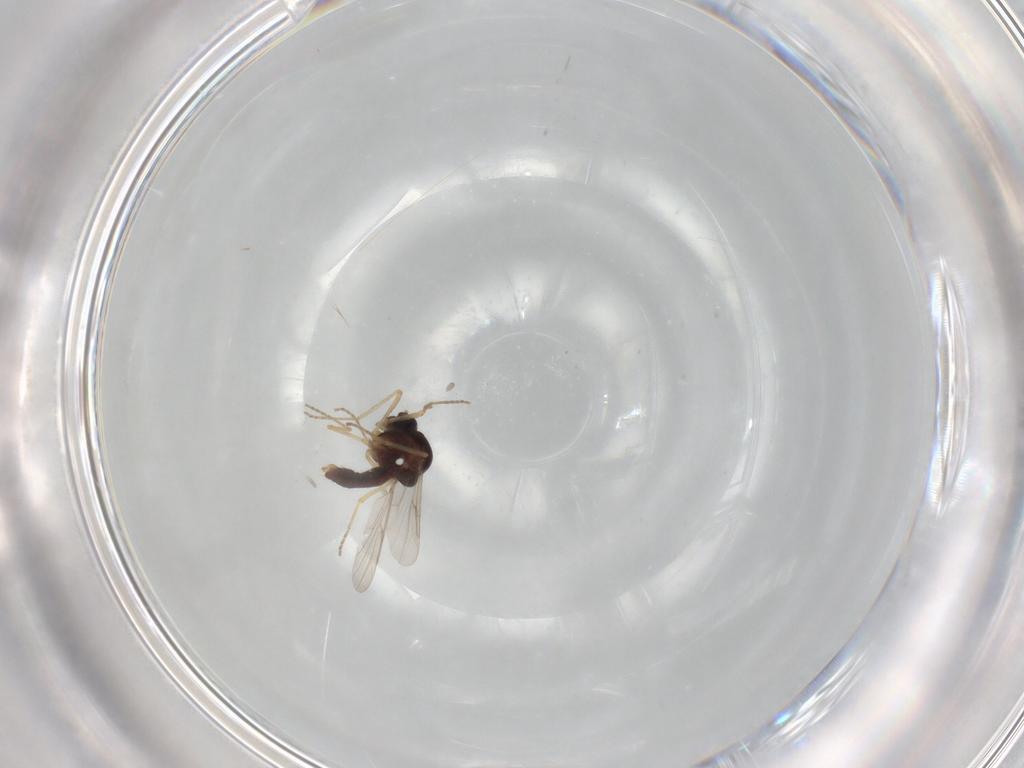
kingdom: Animalia
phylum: Arthropoda
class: Insecta
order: Diptera
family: Ceratopogonidae
